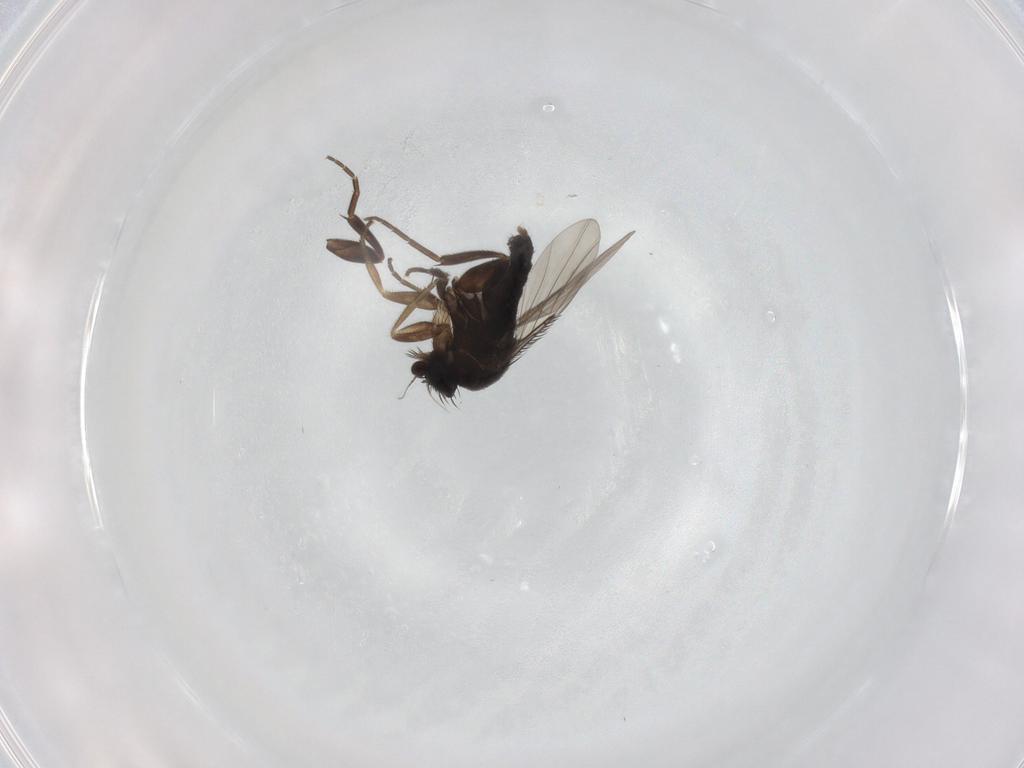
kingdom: Animalia
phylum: Arthropoda
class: Insecta
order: Diptera
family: Phoridae
